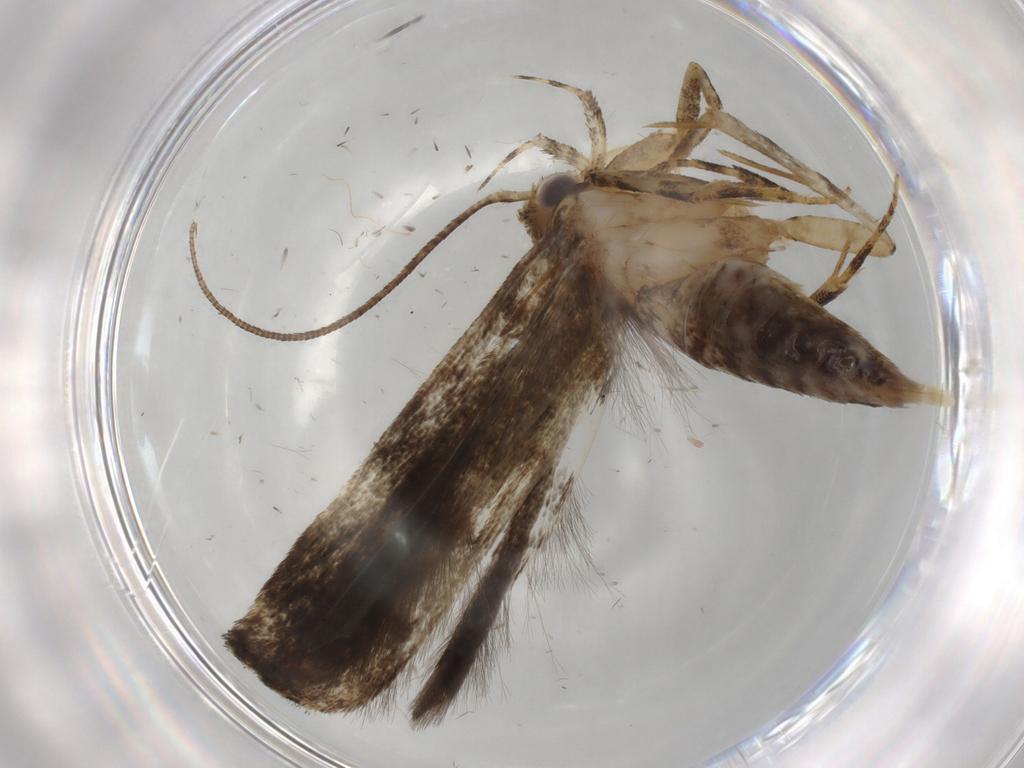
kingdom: Animalia
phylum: Arthropoda
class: Insecta
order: Lepidoptera
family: Gelechiidae
